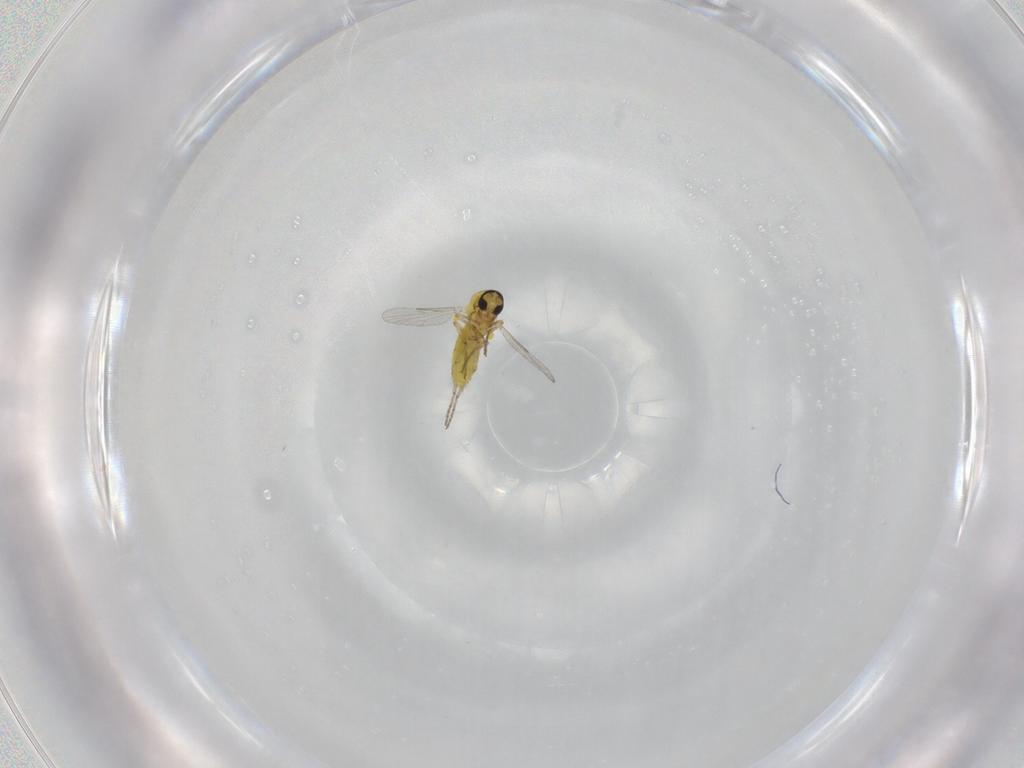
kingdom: Animalia
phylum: Arthropoda
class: Insecta
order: Diptera
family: Ceratopogonidae
